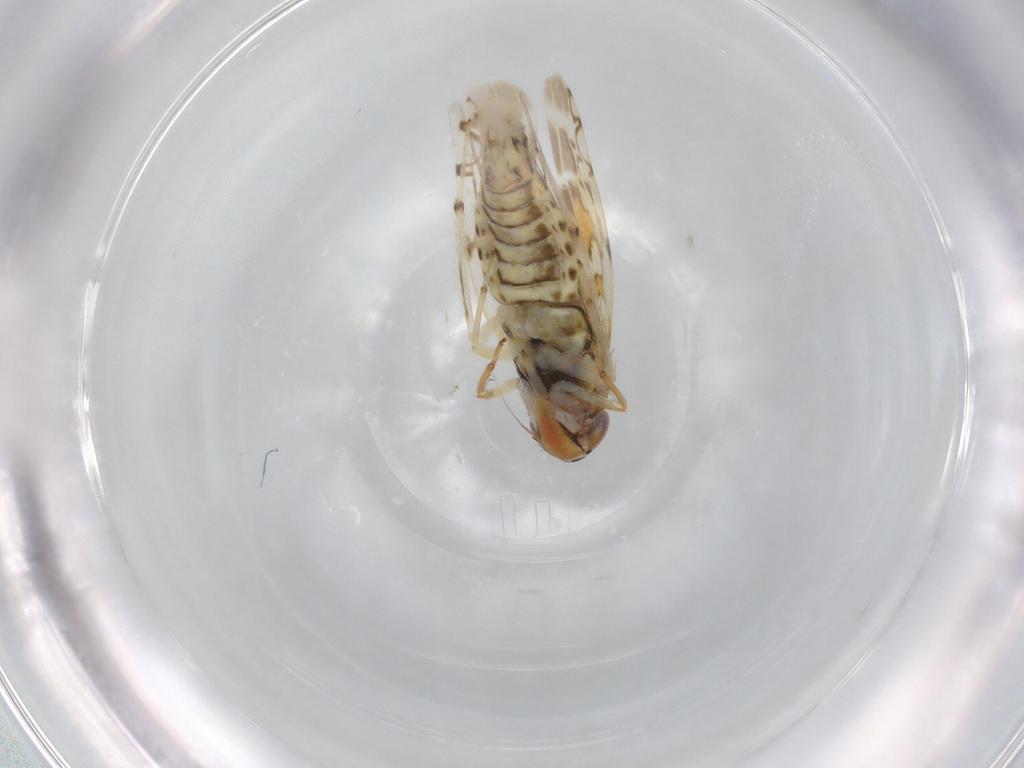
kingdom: Animalia
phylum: Arthropoda
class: Insecta
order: Hemiptera
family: Cicadellidae
